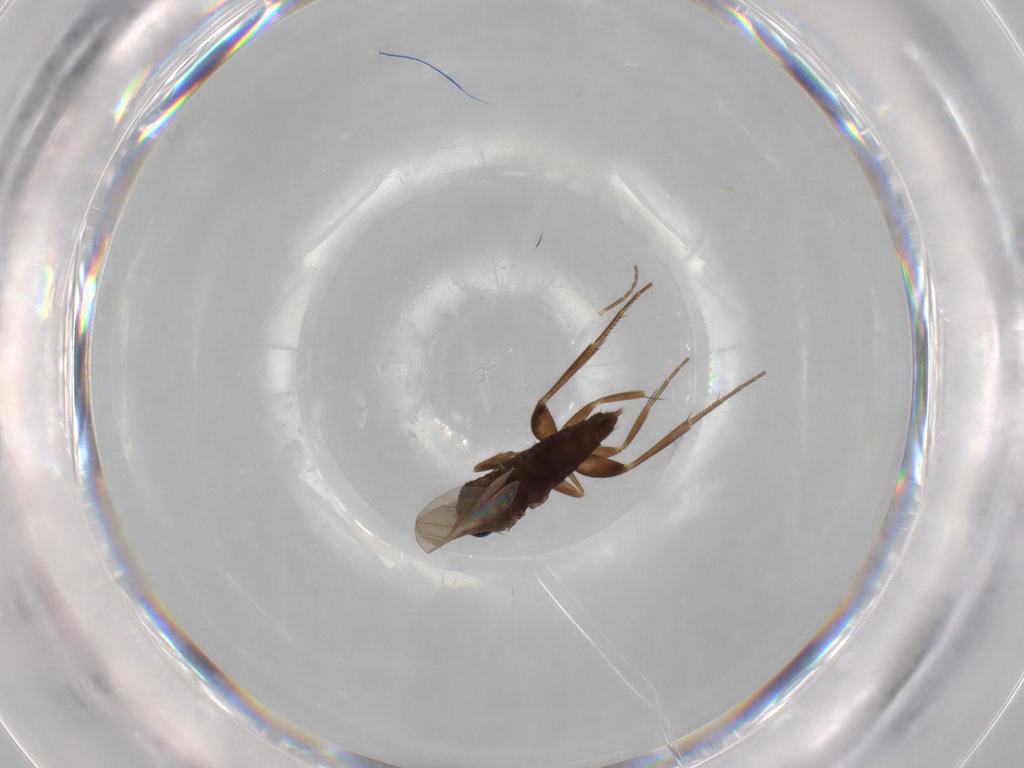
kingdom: Animalia
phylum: Arthropoda
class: Insecta
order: Diptera
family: Phoridae
